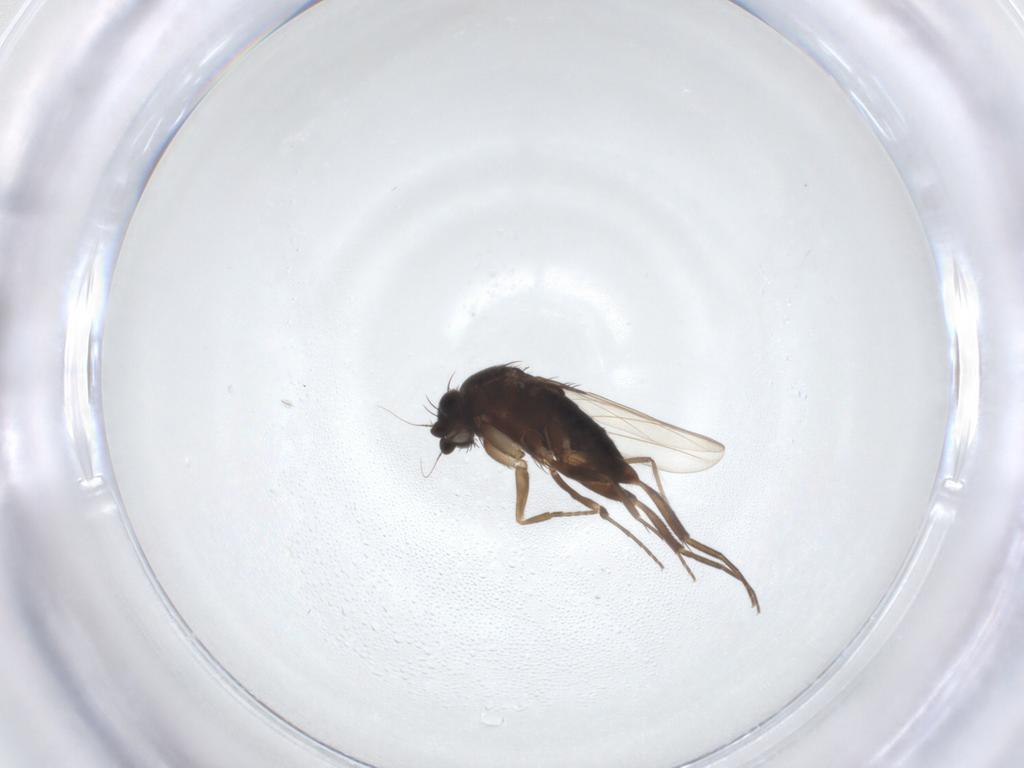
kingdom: Animalia
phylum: Arthropoda
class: Insecta
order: Diptera
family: Phoridae
